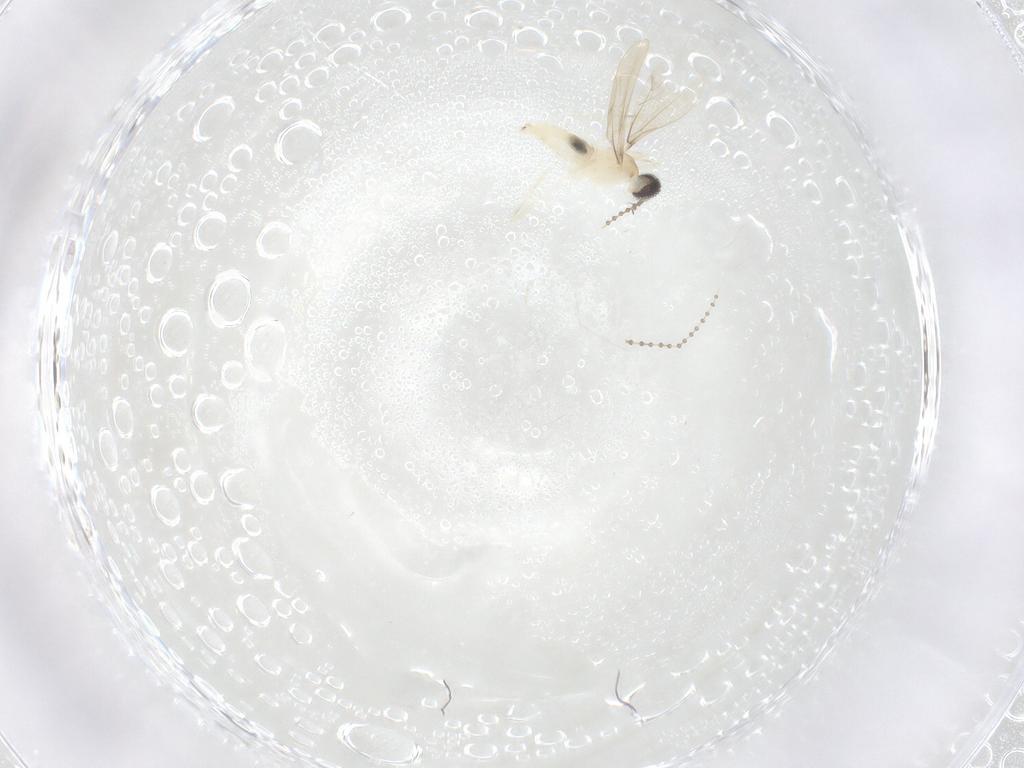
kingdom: Animalia
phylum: Arthropoda
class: Insecta
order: Diptera
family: Cecidomyiidae
